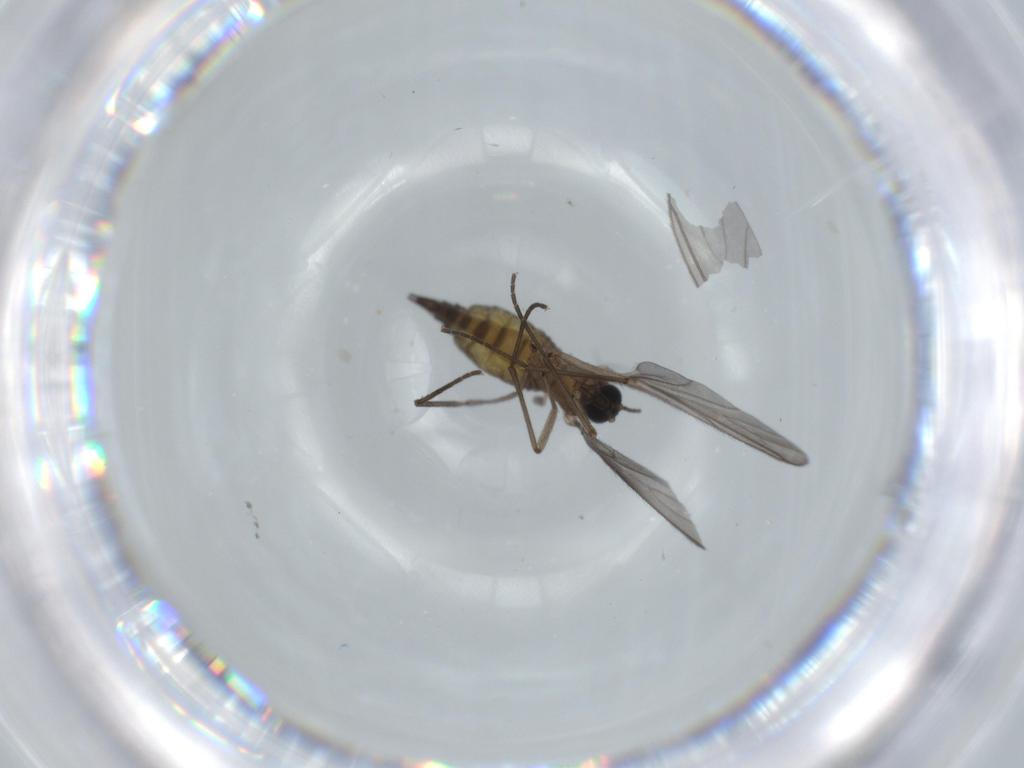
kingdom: Animalia
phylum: Arthropoda
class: Insecta
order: Diptera
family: Sciaridae
